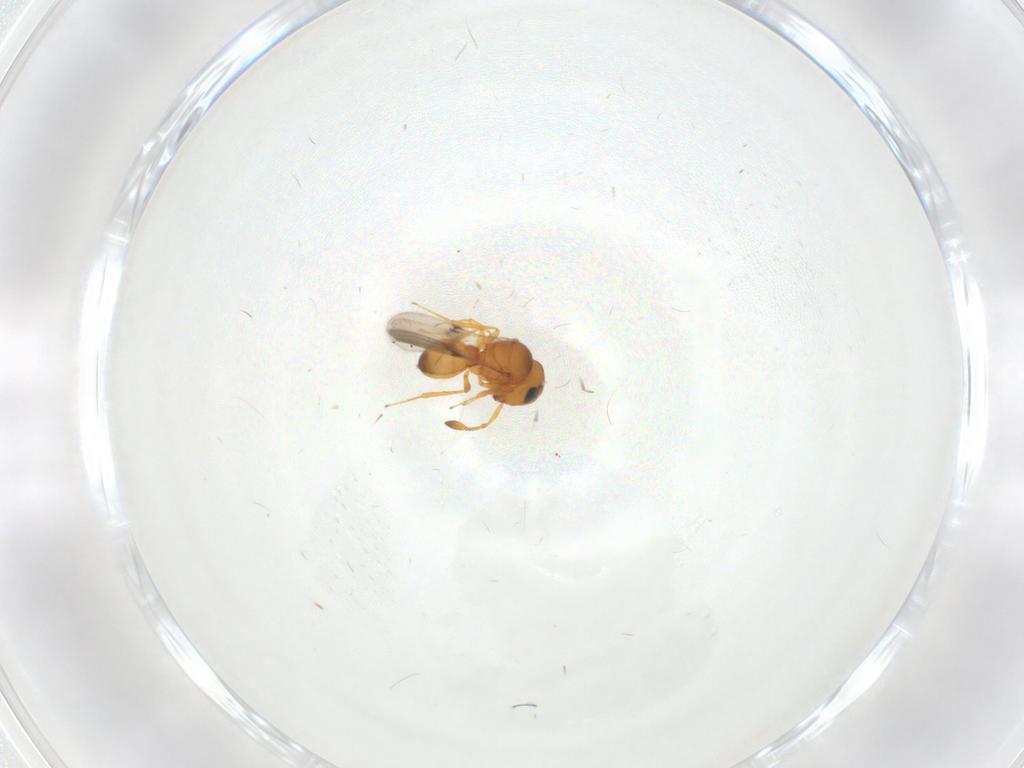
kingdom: Animalia
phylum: Arthropoda
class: Insecta
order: Hymenoptera
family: Scelionidae
